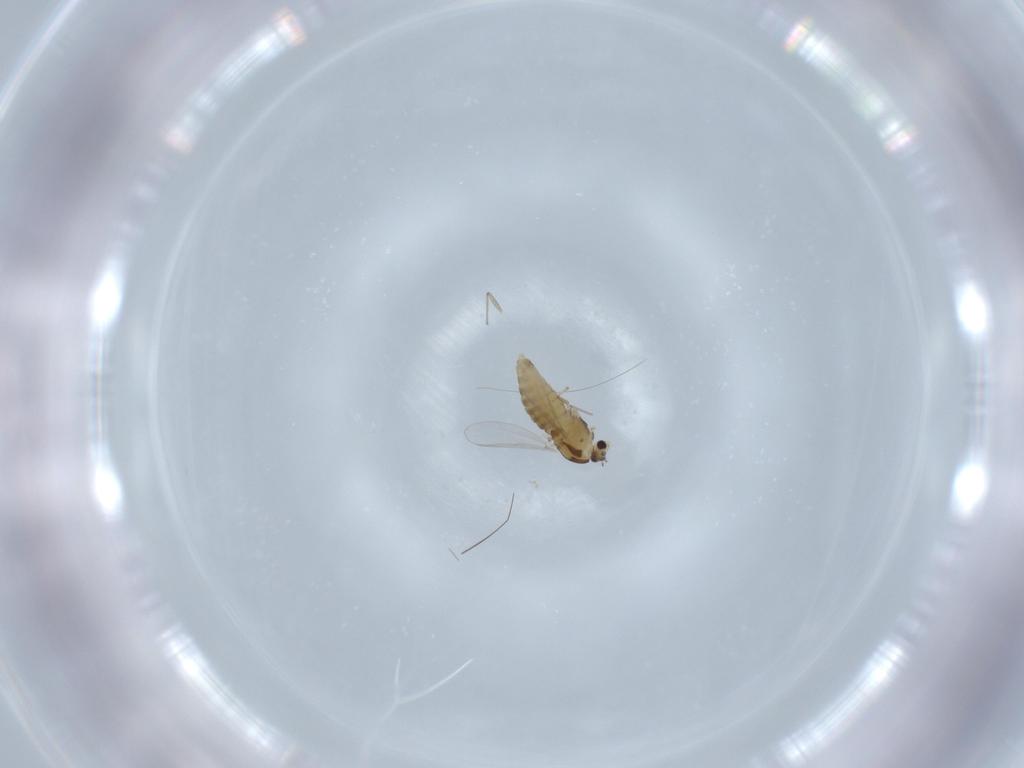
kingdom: Animalia
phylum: Arthropoda
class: Insecta
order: Diptera
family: Chironomidae
